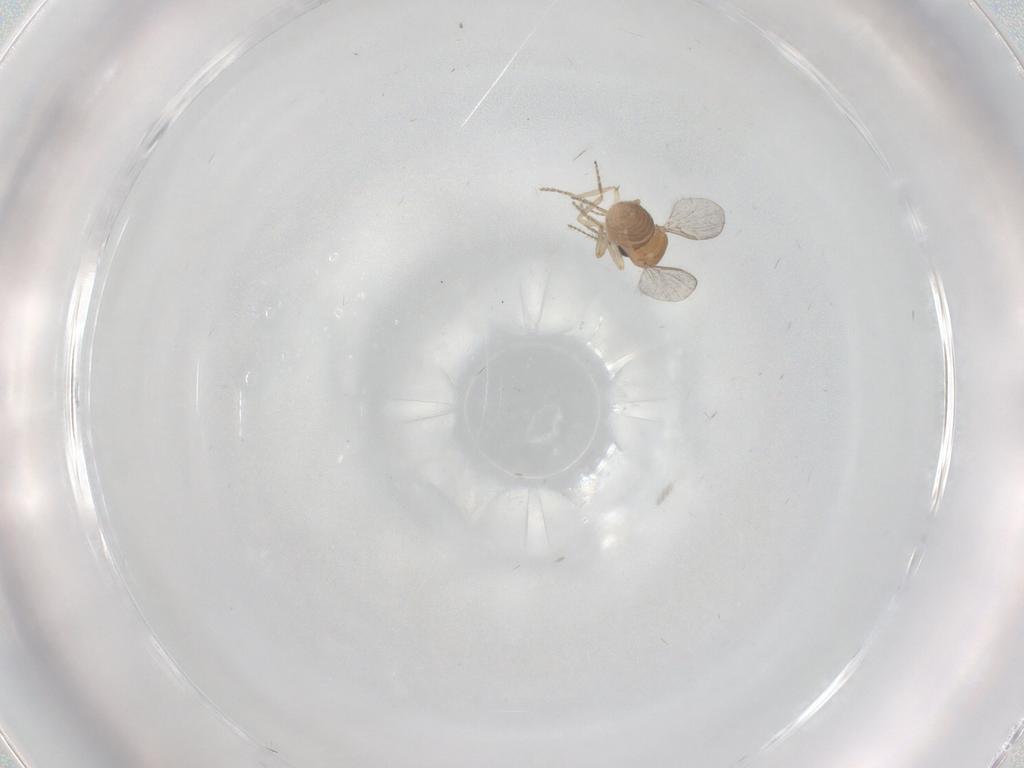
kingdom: Animalia
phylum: Arthropoda
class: Insecta
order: Diptera
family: Ceratopogonidae
